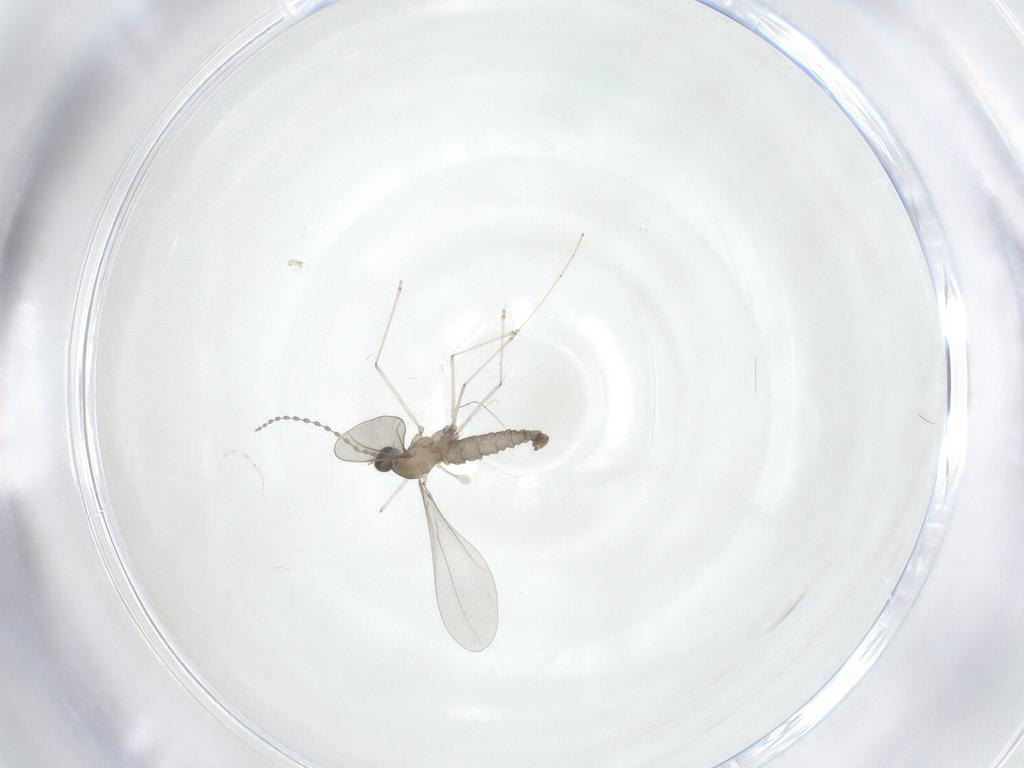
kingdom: Animalia
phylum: Arthropoda
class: Insecta
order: Diptera
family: Cecidomyiidae
